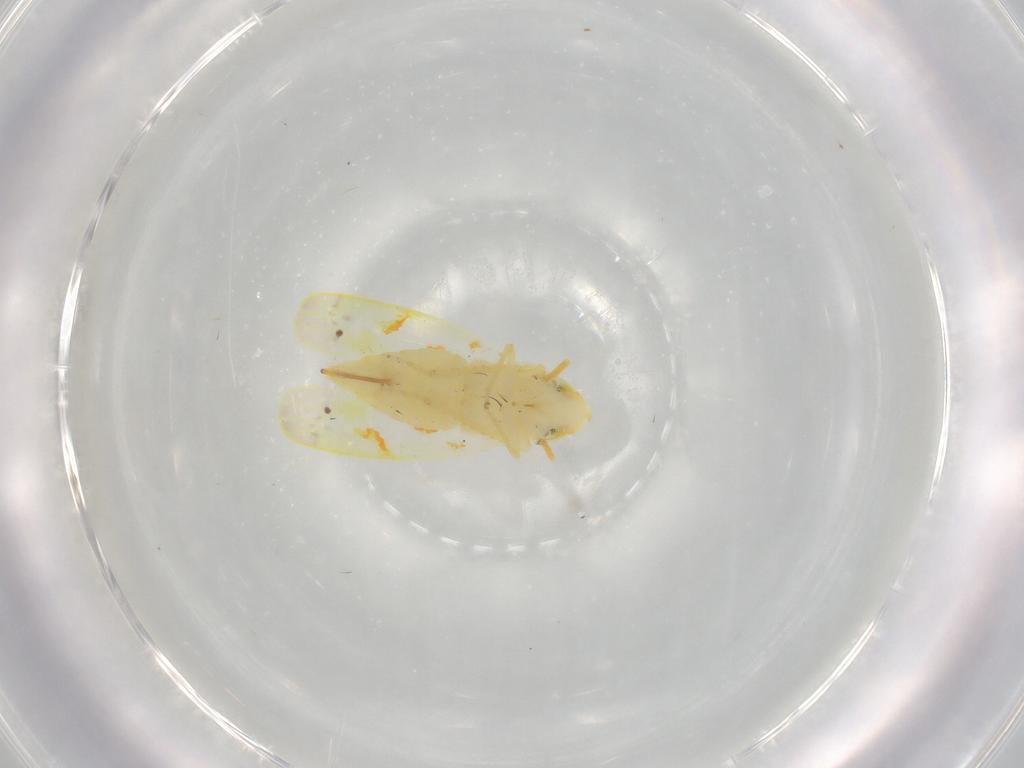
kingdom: Animalia
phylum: Arthropoda
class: Insecta
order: Hemiptera
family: Cicadellidae
